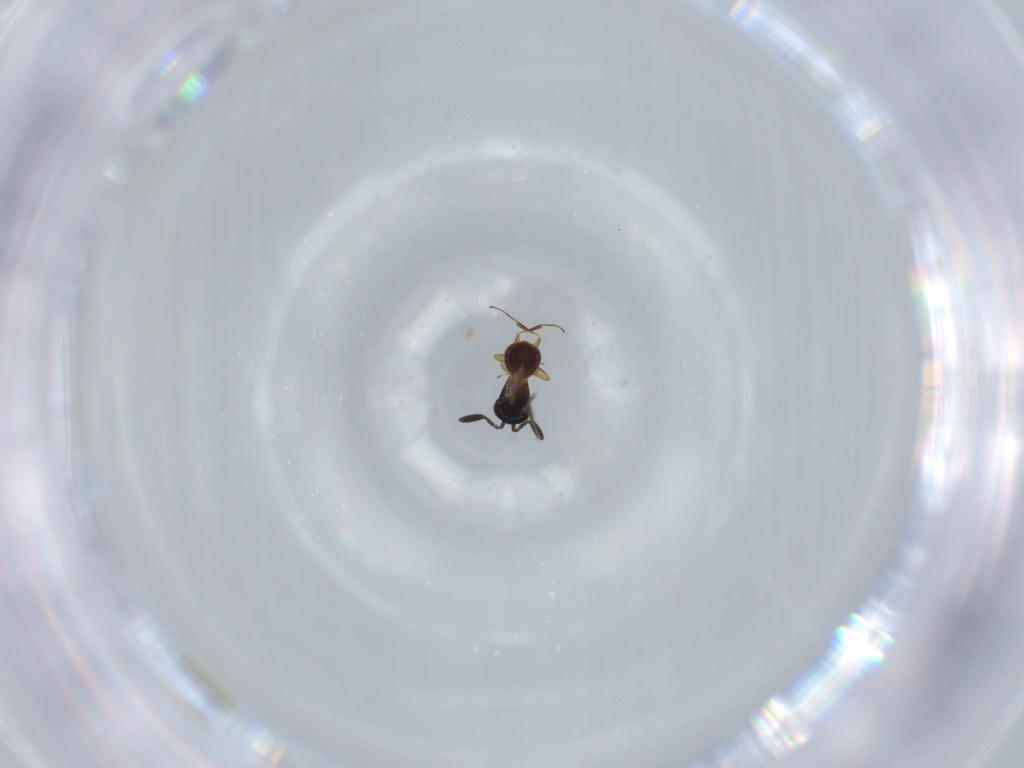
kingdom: Animalia
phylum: Arthropoda
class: Insecta
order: Hymenoptera
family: Scelionidae
